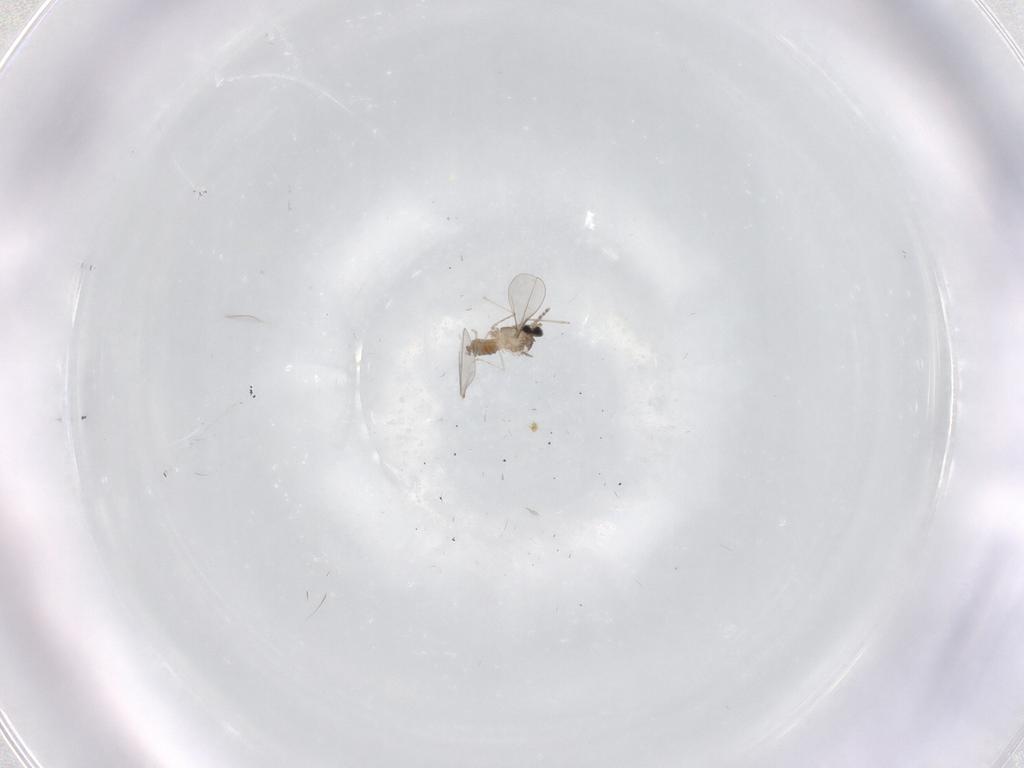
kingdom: Animalia
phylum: Arthropoda
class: Insecta
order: Diptera
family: Cecidomyiidae
